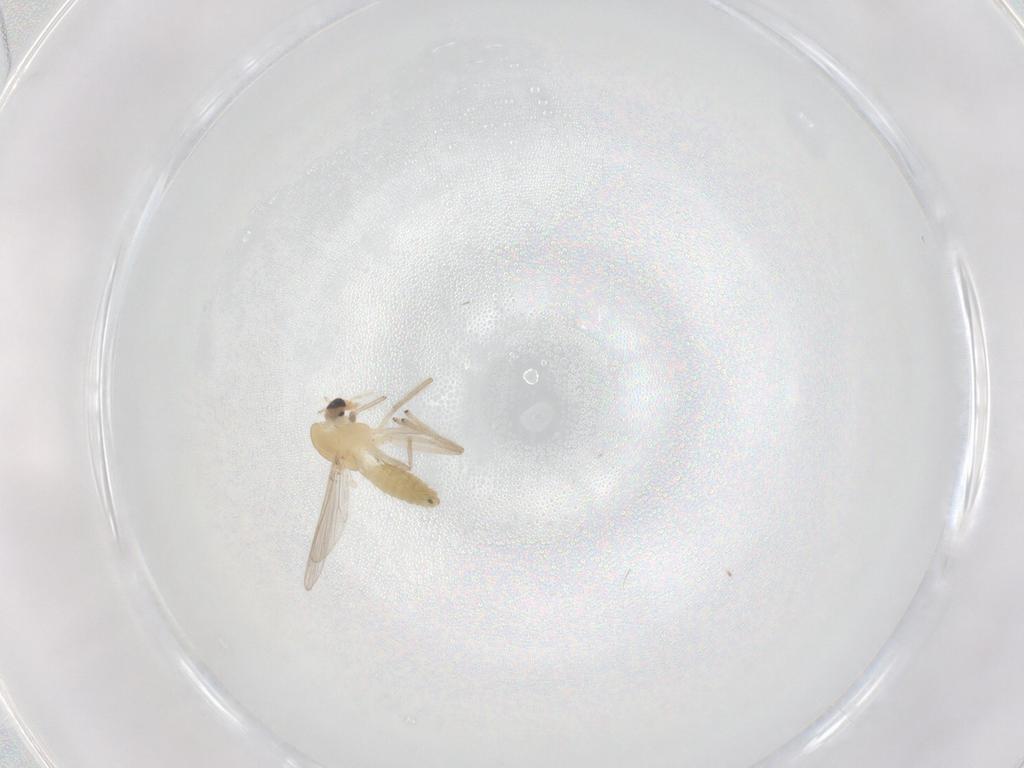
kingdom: Animalia
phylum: Arthropoda
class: Insecta
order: Diptera
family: Chironomidae
